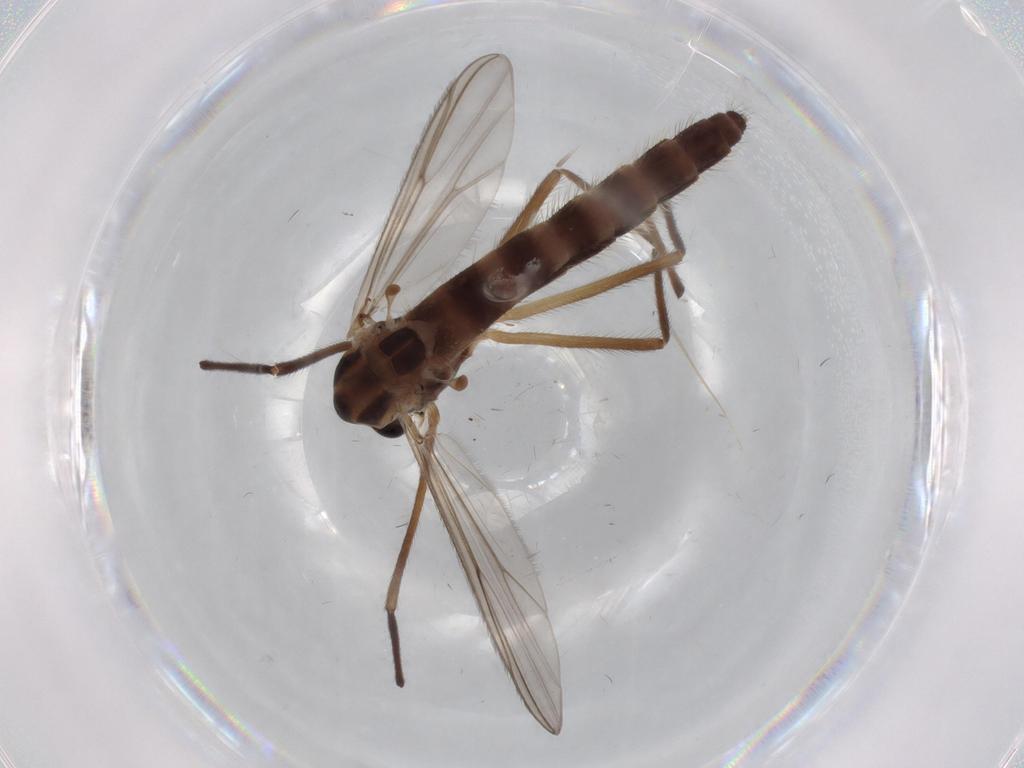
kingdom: Animalia
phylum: Arthropoda
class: Insecta
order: Diptera
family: Chironomidae
